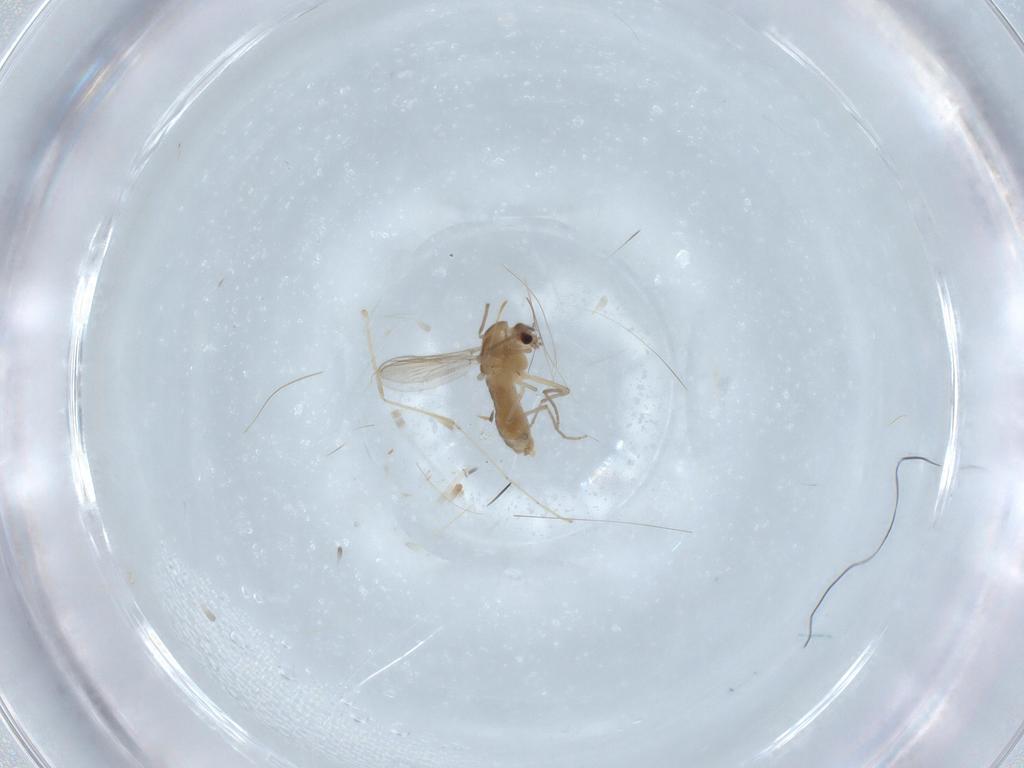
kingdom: Animalia
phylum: Arthropoda
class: Insecta
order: Diptera
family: Chironomidae
